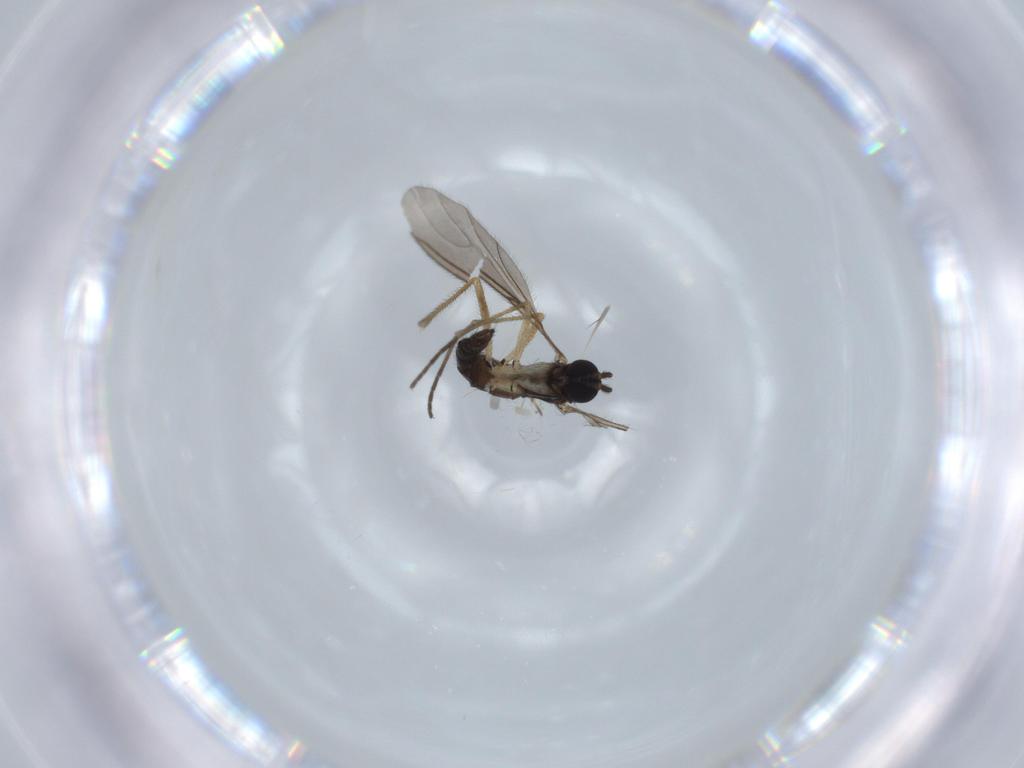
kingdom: Animalia
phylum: Arthropoda
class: Insecta
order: Diptera
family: Sciaridae
